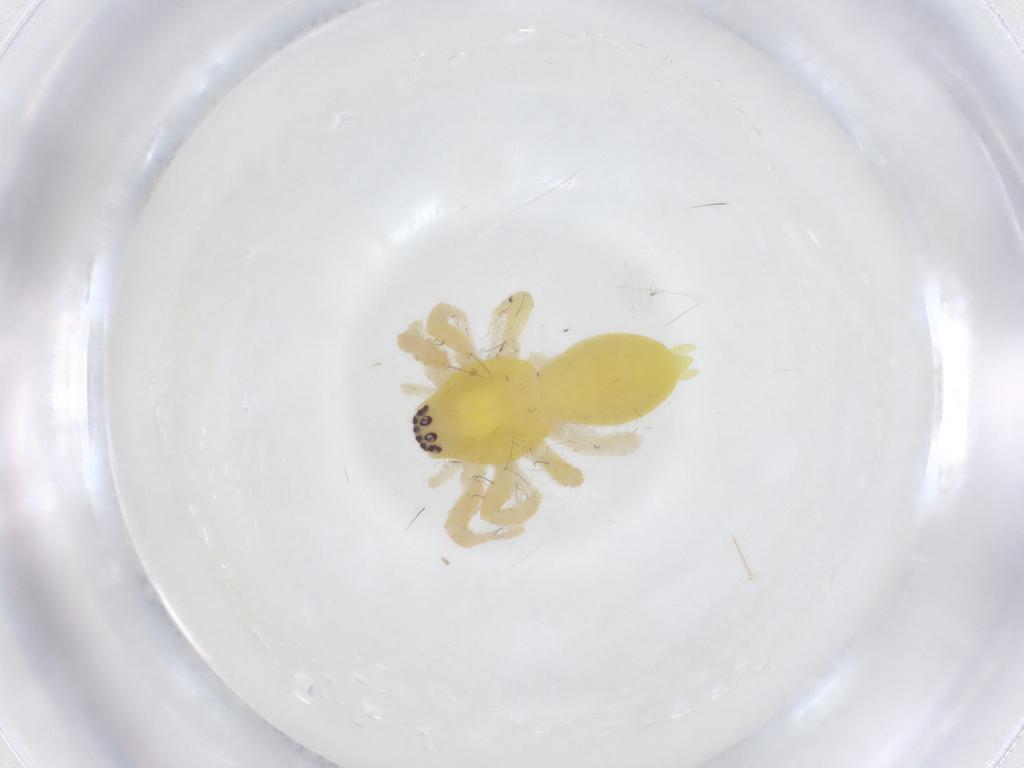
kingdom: Animalia
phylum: Arthropoda
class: Arachnida
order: Araneae
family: Anyphaenidae
